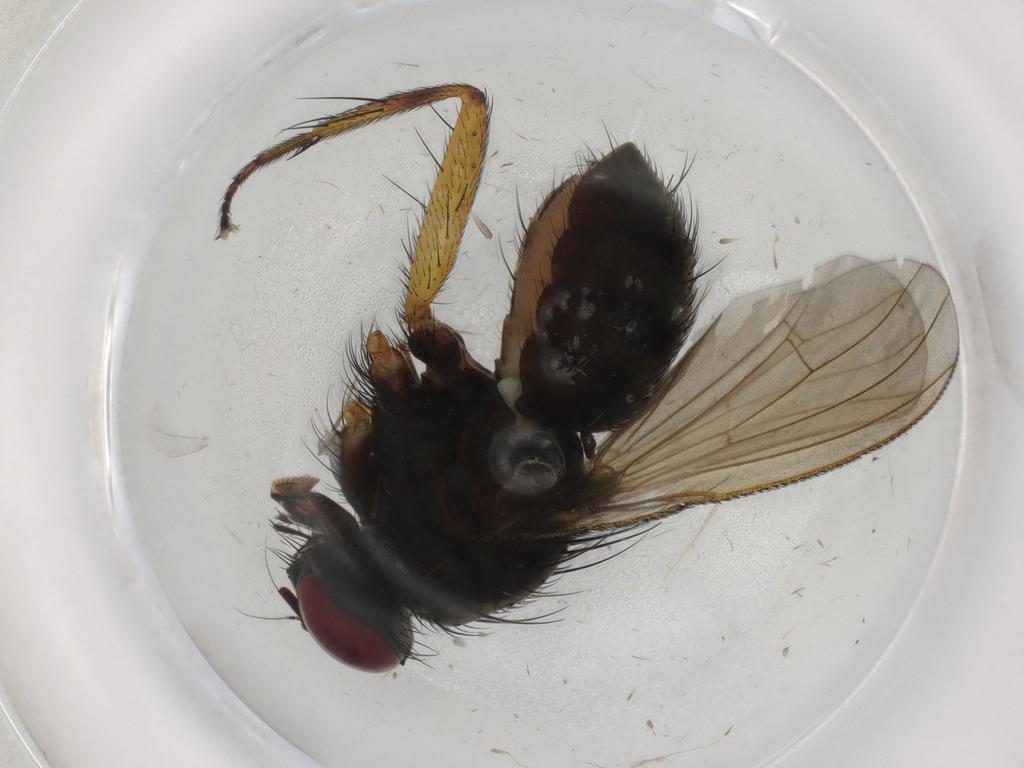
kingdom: Animalia
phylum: Arthropoda
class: Insecta
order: Diptera
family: Muscidae
